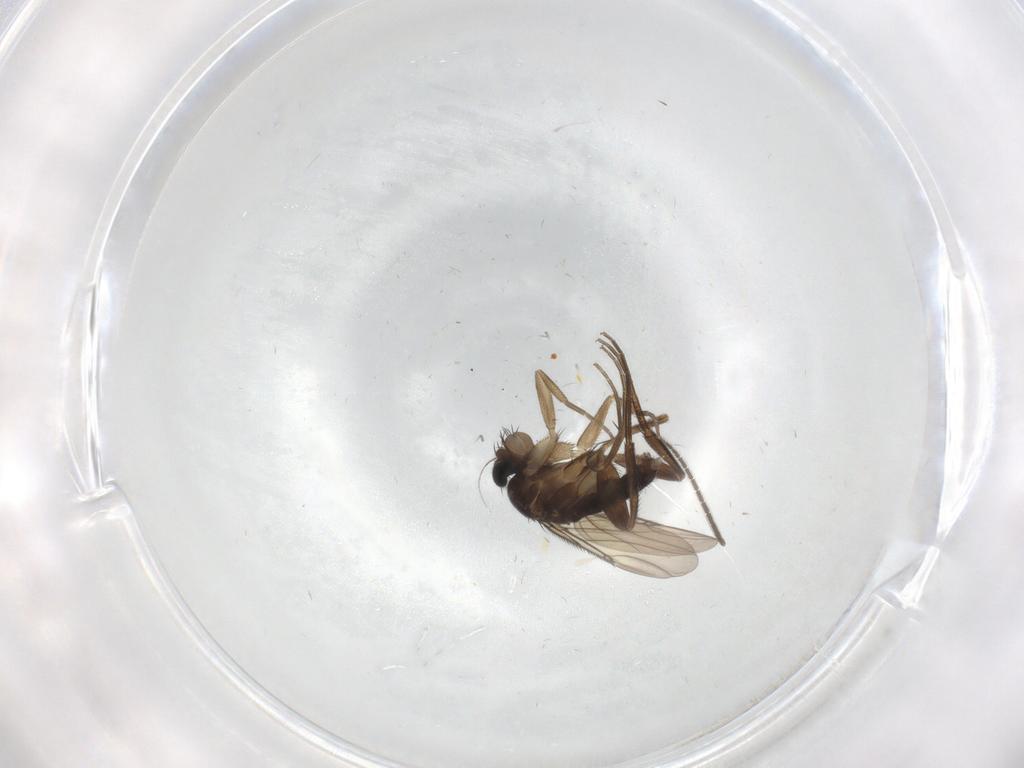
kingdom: Animalia
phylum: Arthropoda
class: Insecta
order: Diptera
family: Phoridae
